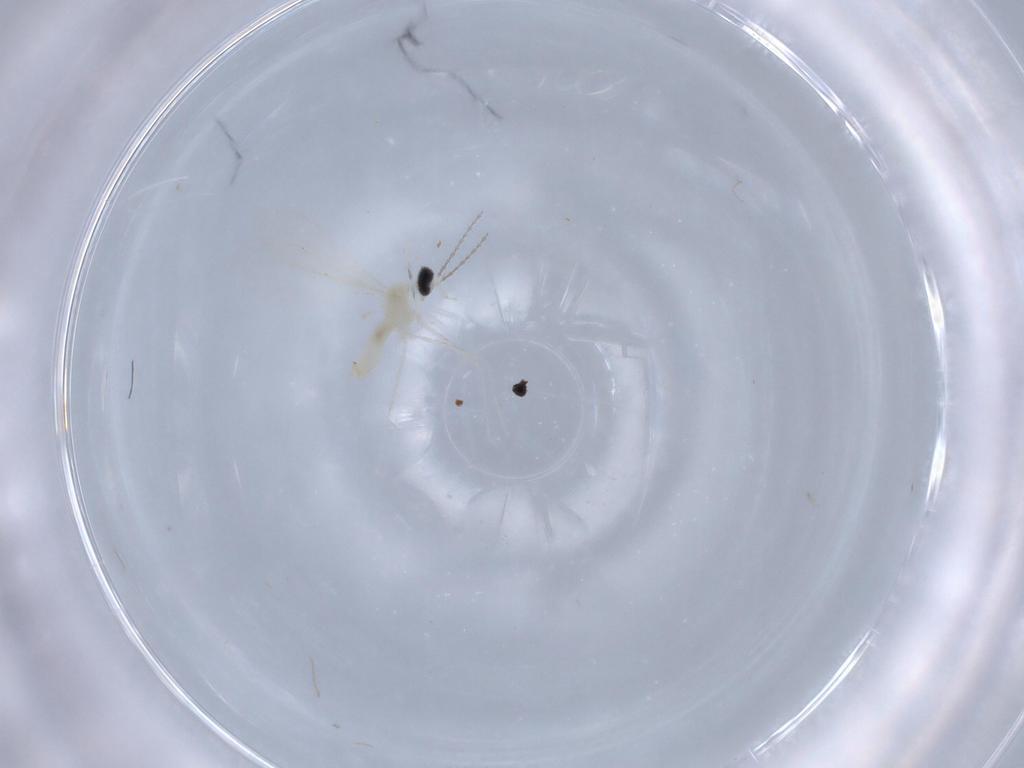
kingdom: Animalia
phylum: Arthropoda
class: Insecta
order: Diptera
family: Cecidomyiidae
